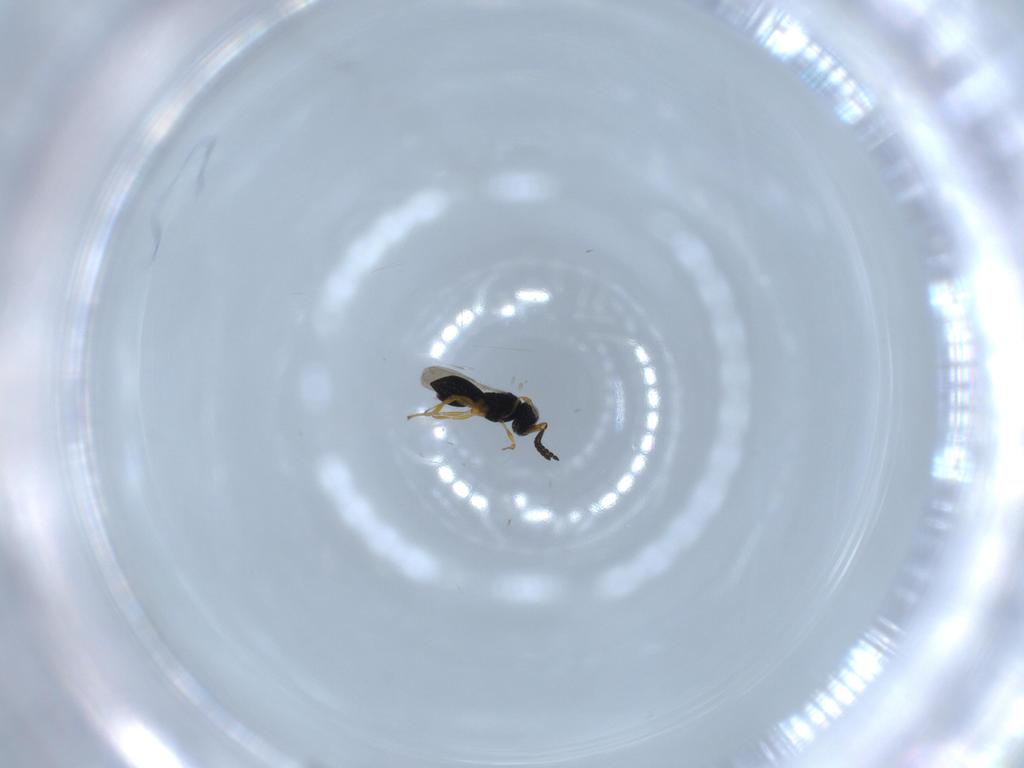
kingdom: Animalia
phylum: Arthropoda
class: Insecta
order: Hymenoptera
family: Scelionidae
